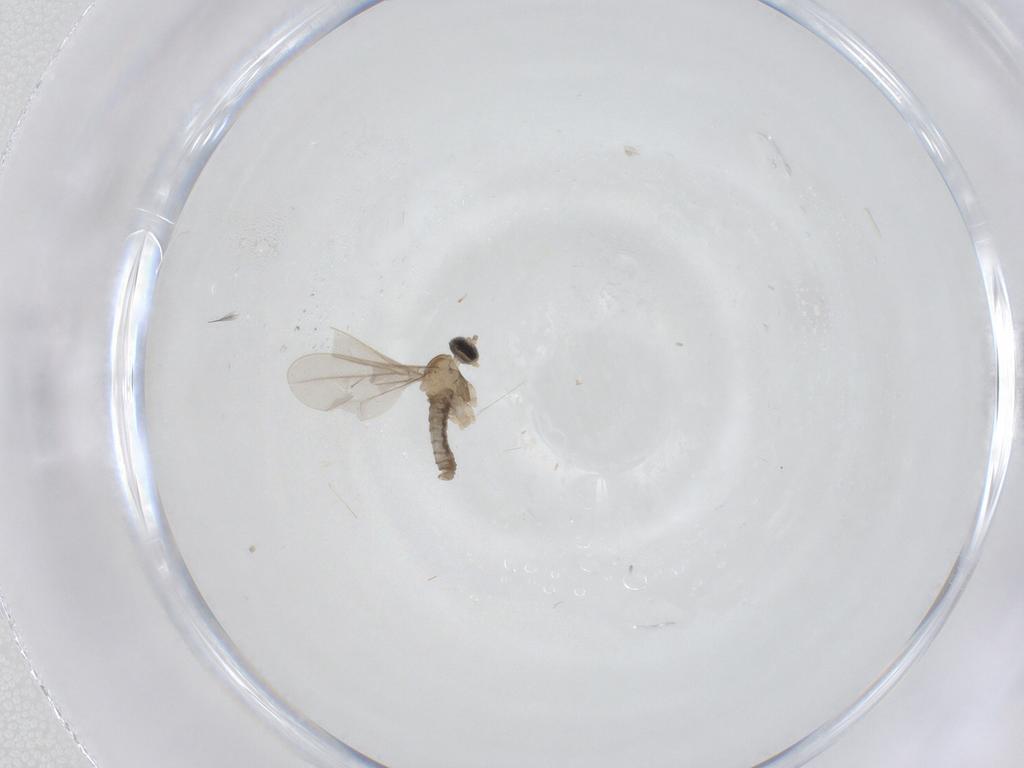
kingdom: Animalia
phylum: Arthropoda
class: Insecta
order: Diptera
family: Cecidomyiidae
